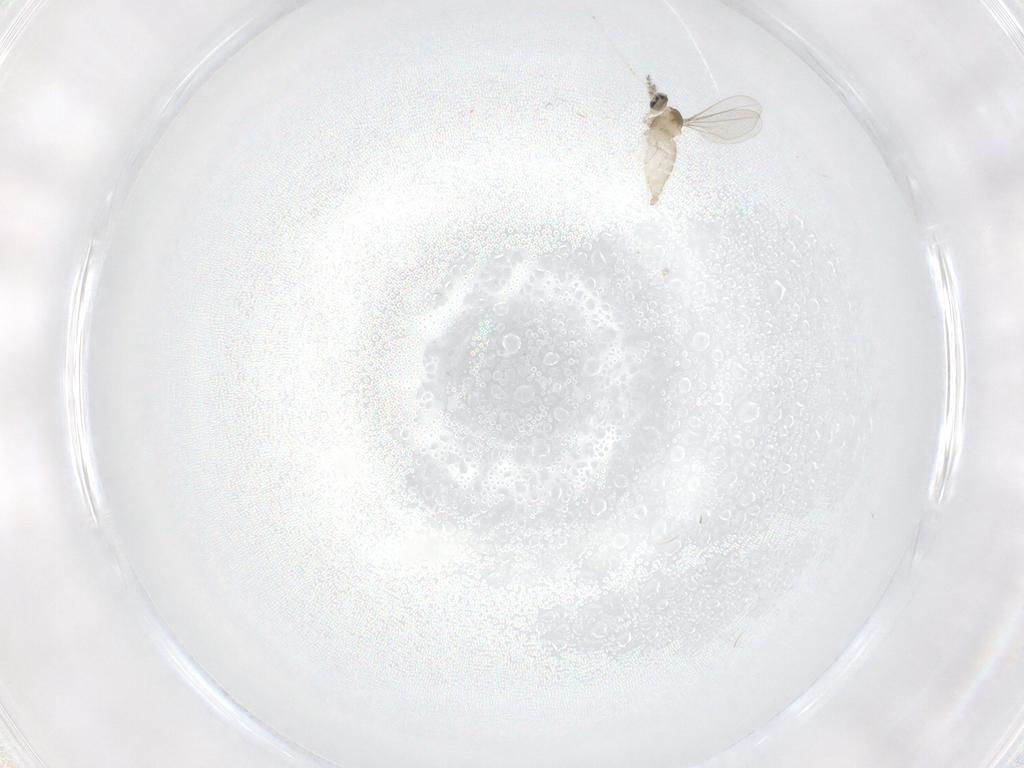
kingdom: Animalia
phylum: Arthropoda
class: Insecta
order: Diptera
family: Cecidomyiidae
